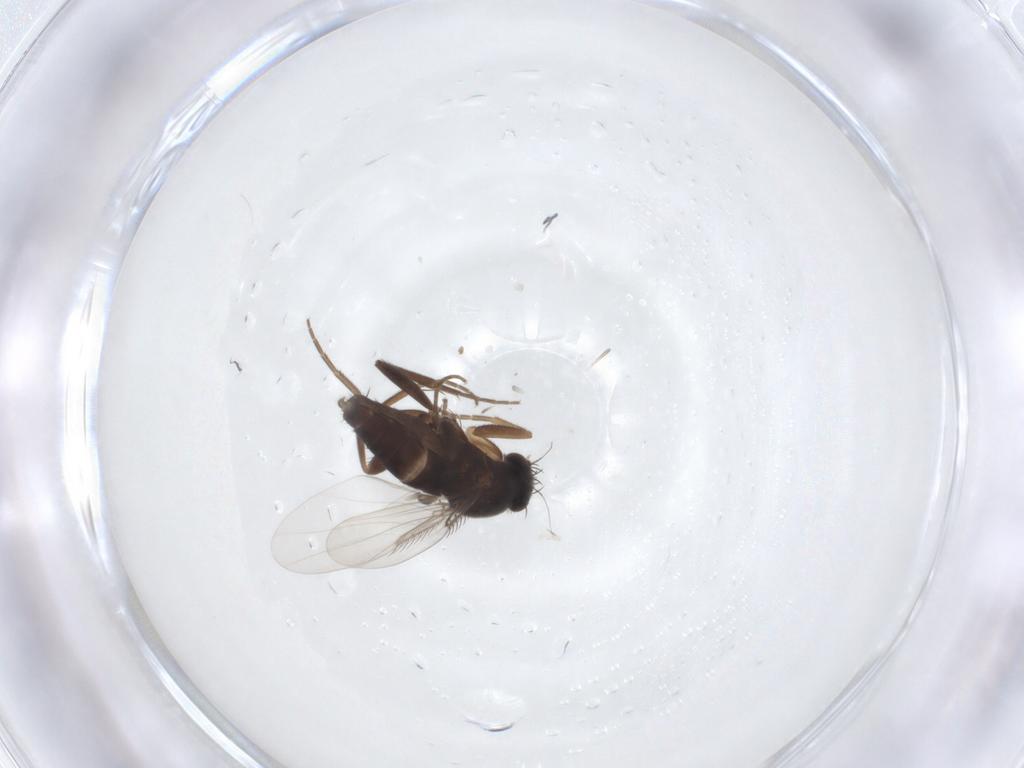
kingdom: Animalia
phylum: Arthropoda
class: Insecta
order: Diptera
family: Phoridae
